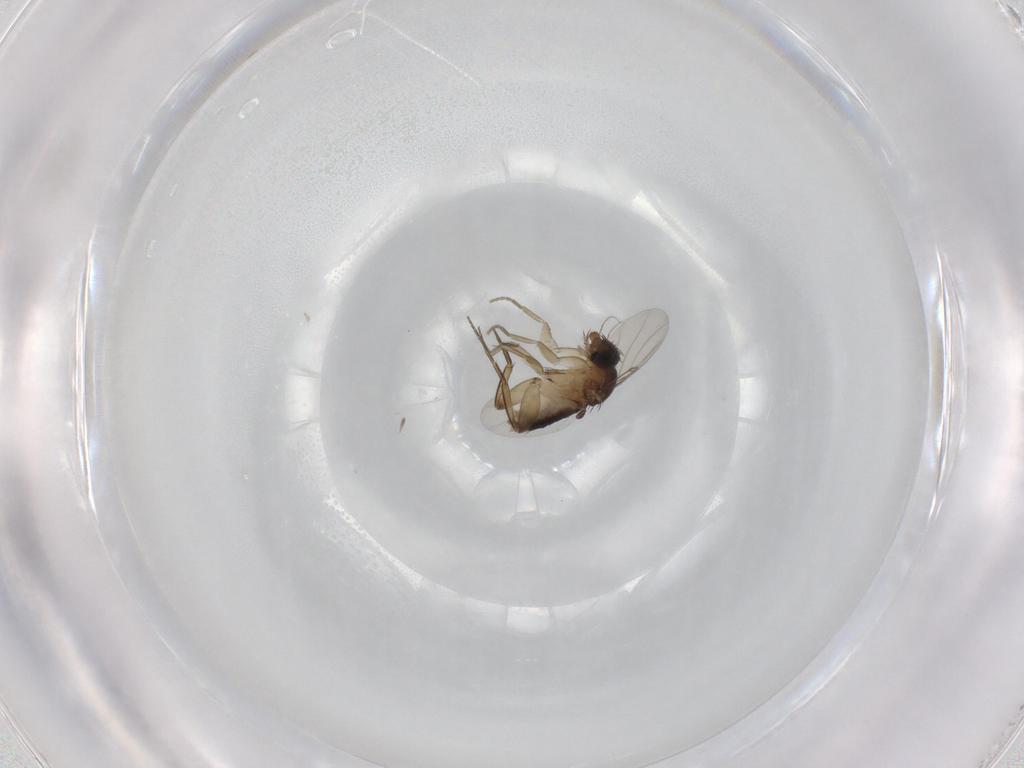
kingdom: Animalia
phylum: Arthropoda
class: Insecta
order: Diptera
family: Chironomidae
